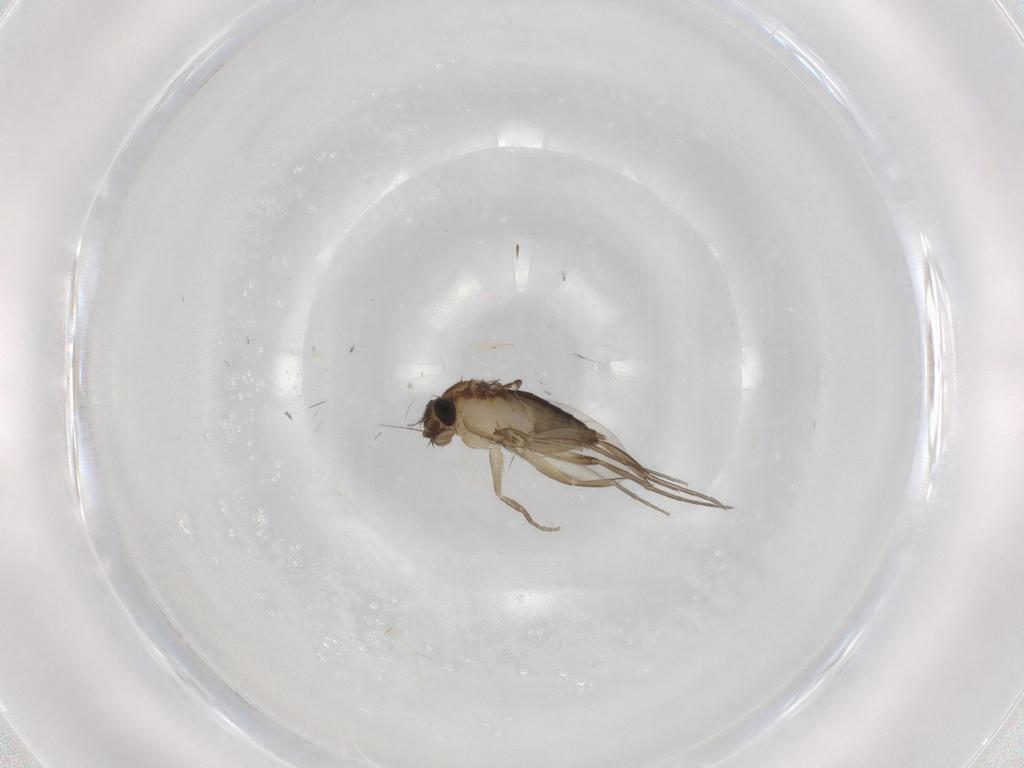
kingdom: Animalia
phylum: Arthropoda
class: Insecta
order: Diptera
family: Phoridae
